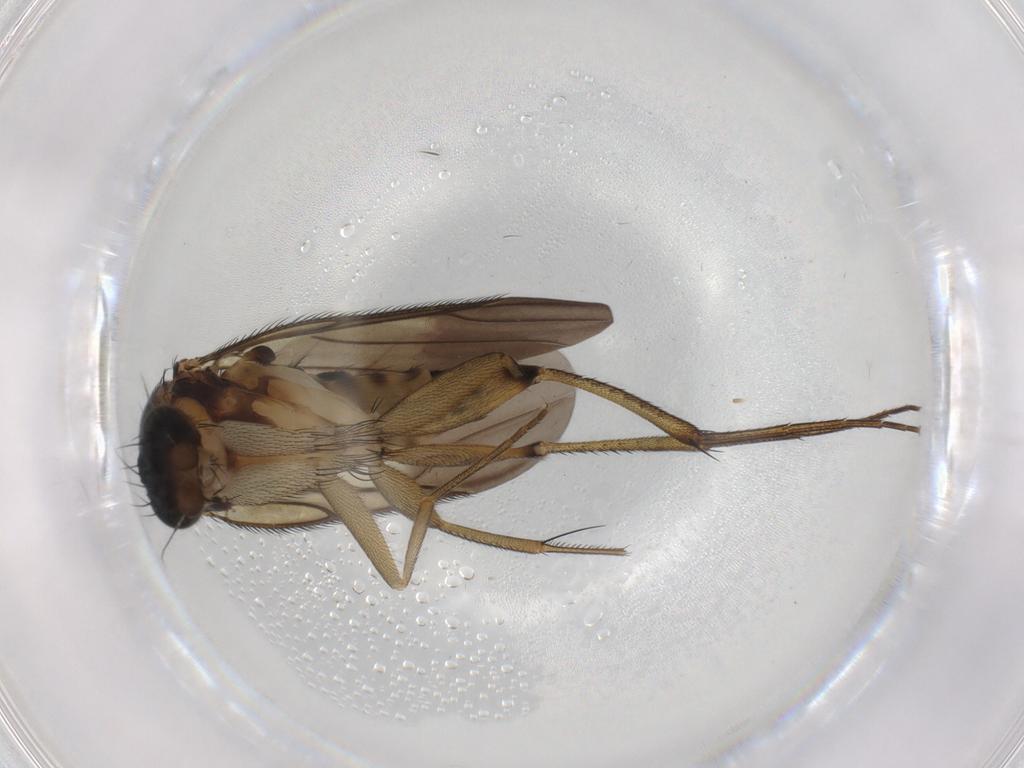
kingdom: Animalia
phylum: Arthropoda
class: Insecta
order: Diptera
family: Phoridae
